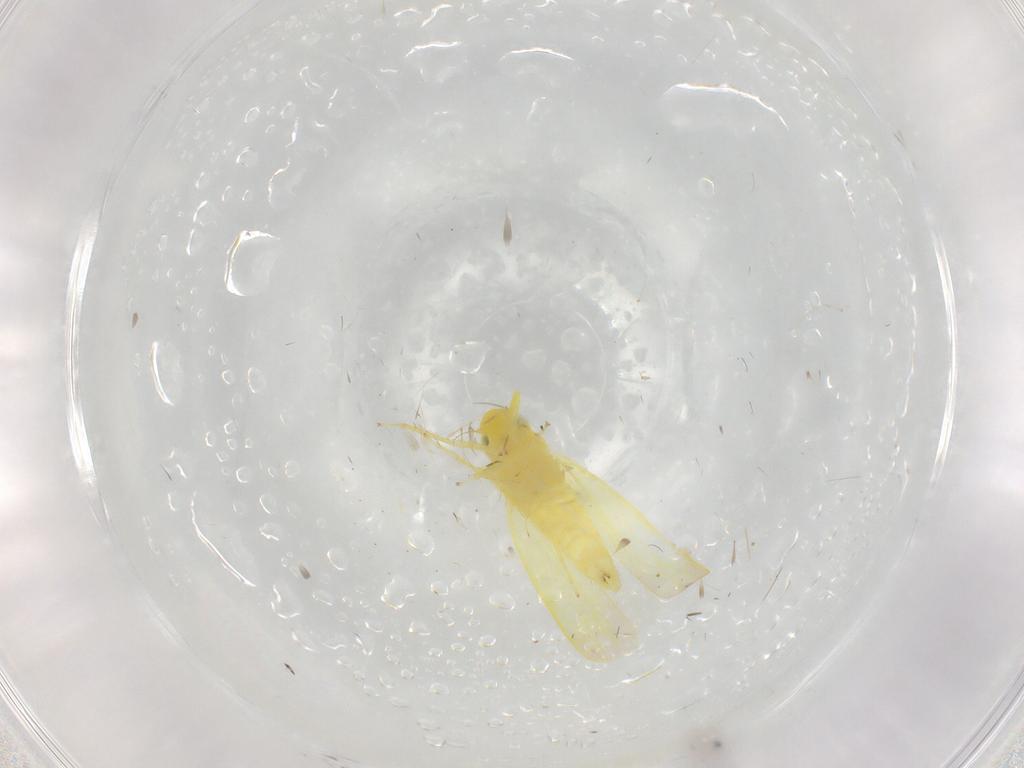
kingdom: Animalia
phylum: Arthropoda
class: Insecta
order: Hemiptera
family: Cicadellidae
